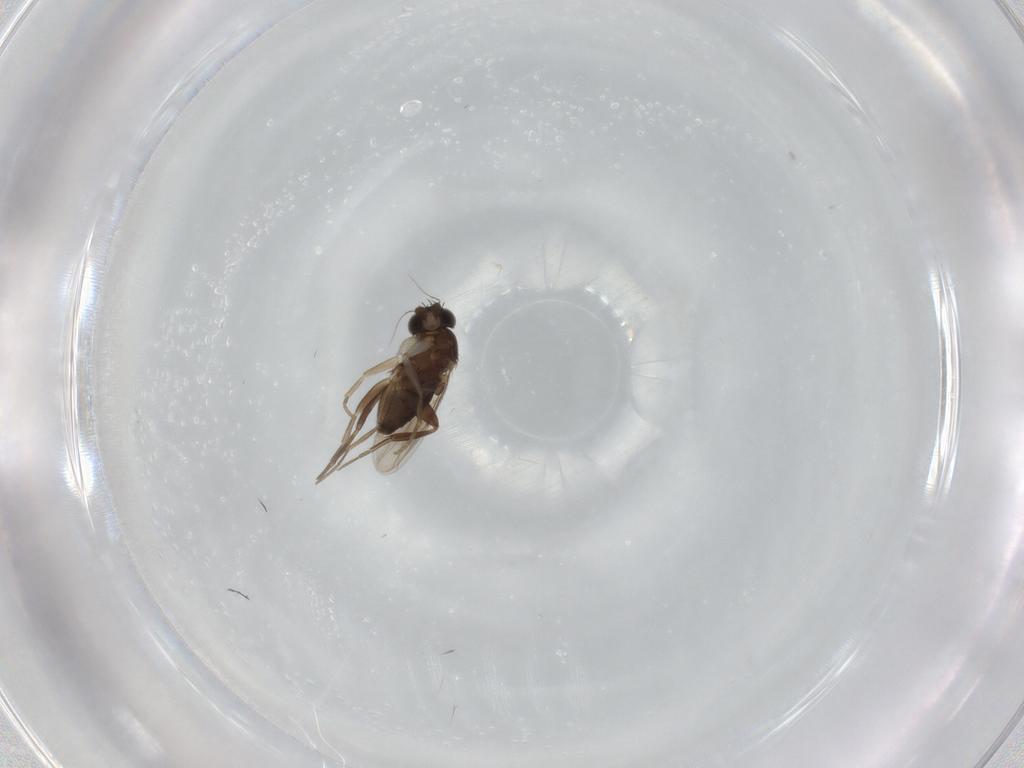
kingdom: Animalia
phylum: Arthropoda
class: Insecta
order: Diptera
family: Phoridae
